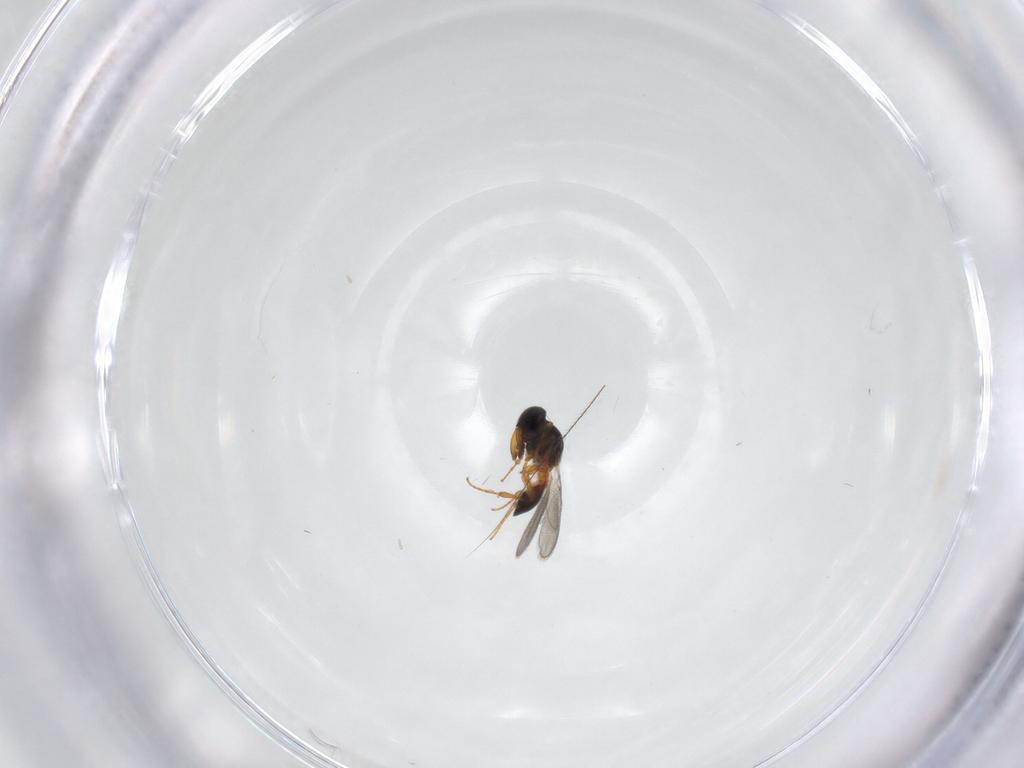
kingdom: Animalia
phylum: Arthropoda
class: Insecta
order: Hymenoptera
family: Platygastridae
